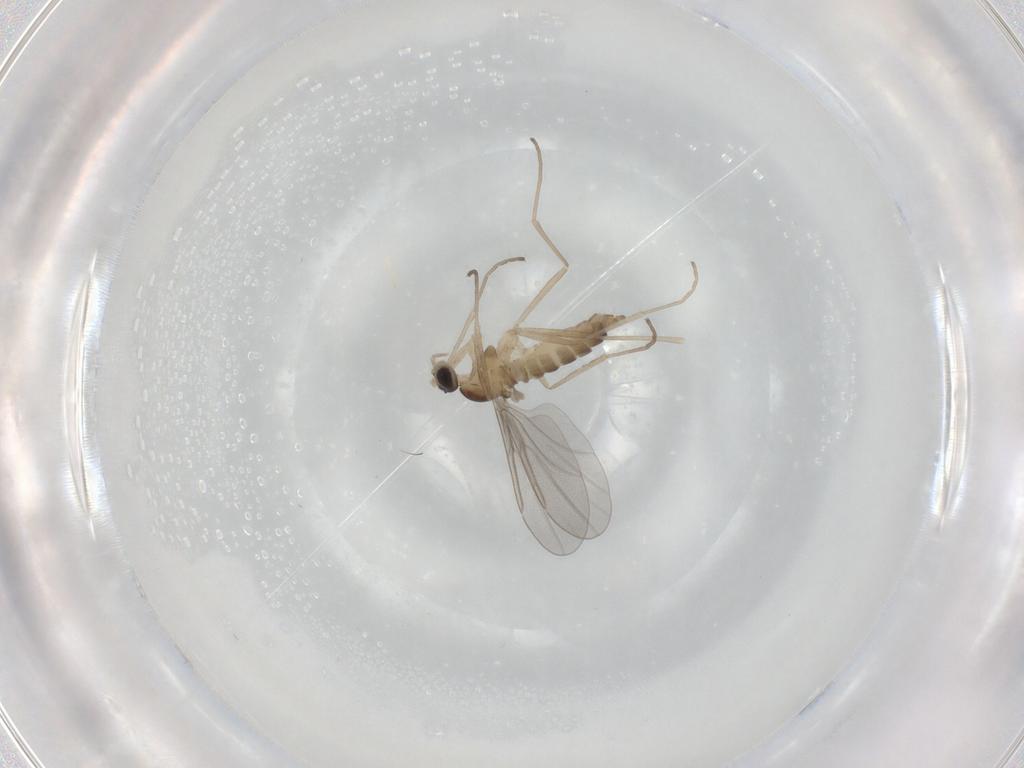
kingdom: Animalia
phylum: Arthropoda
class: Insecta
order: Diptera
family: Cecidomyiidae
